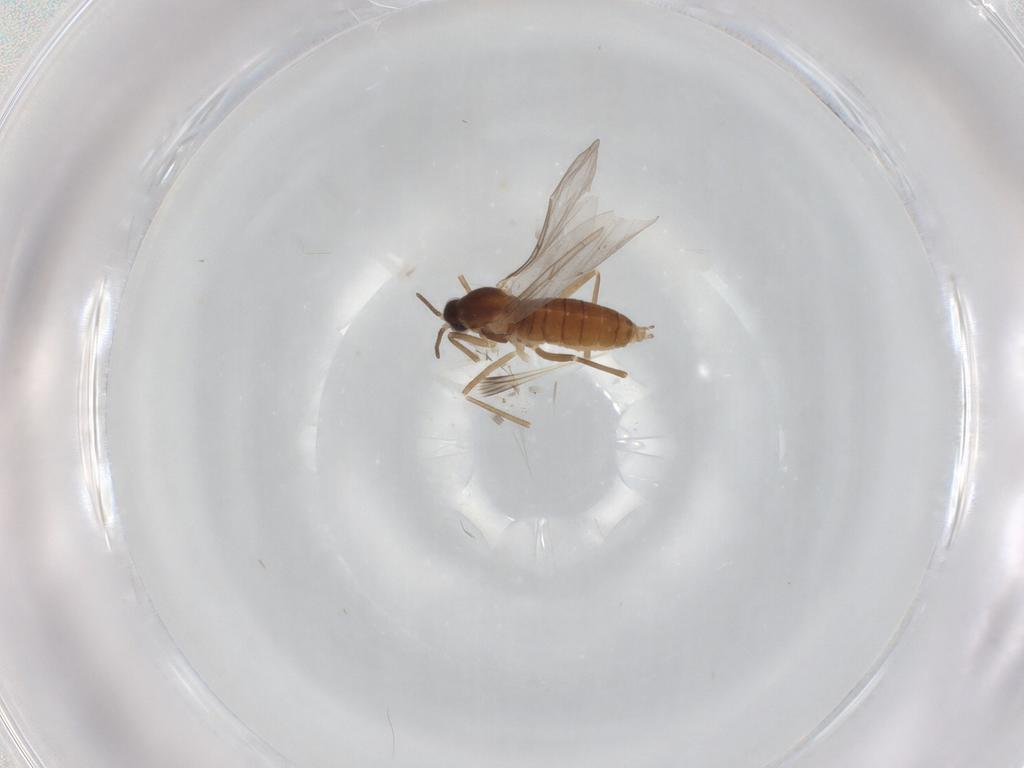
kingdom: Animalia
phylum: Arthropoda
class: Insecta
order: Diptera
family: Cecidomyiidae
